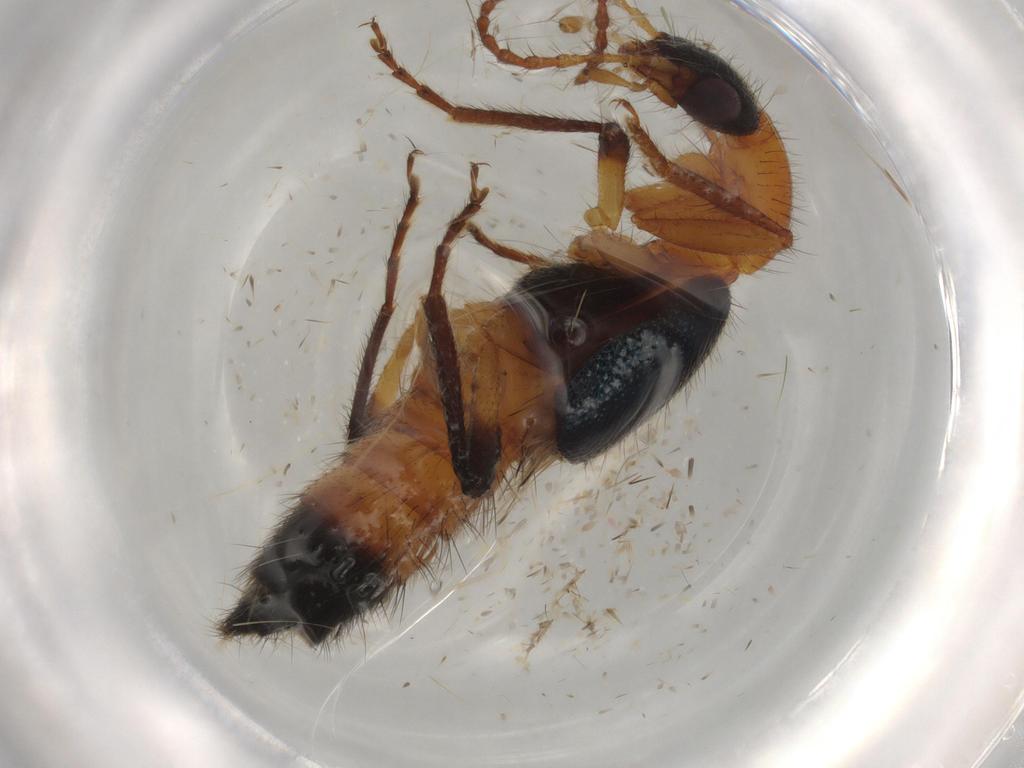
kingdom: Animalia
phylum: Arthropoda
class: Insecta
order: Coleoptera
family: Staphylinidae
